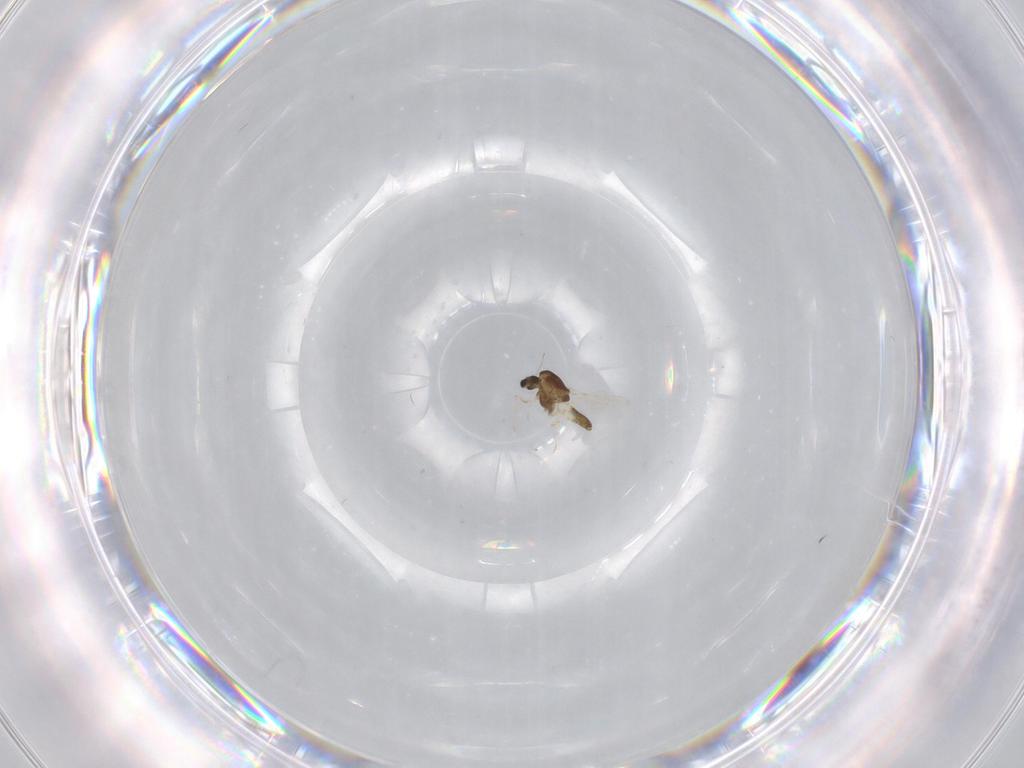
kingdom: Animalia
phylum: Arthropoda
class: Insecta
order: Diptera
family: Chironomidae
